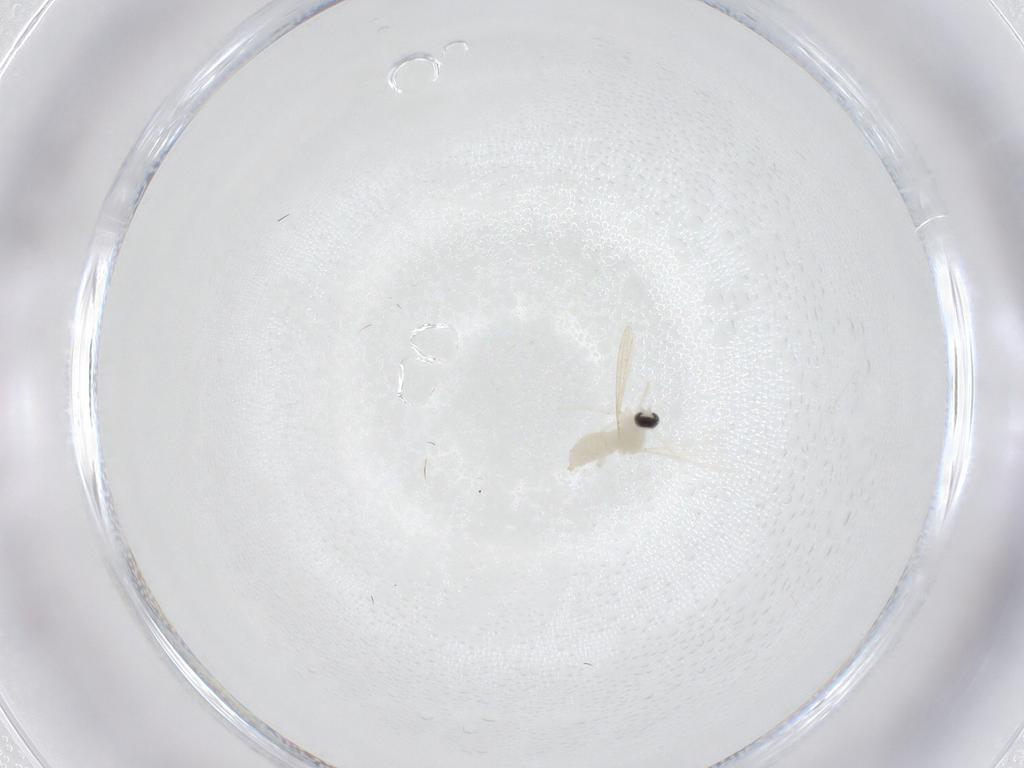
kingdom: Animalia
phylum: Arthropoda
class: Insecta
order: Diptera
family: Cecidomyiidae
